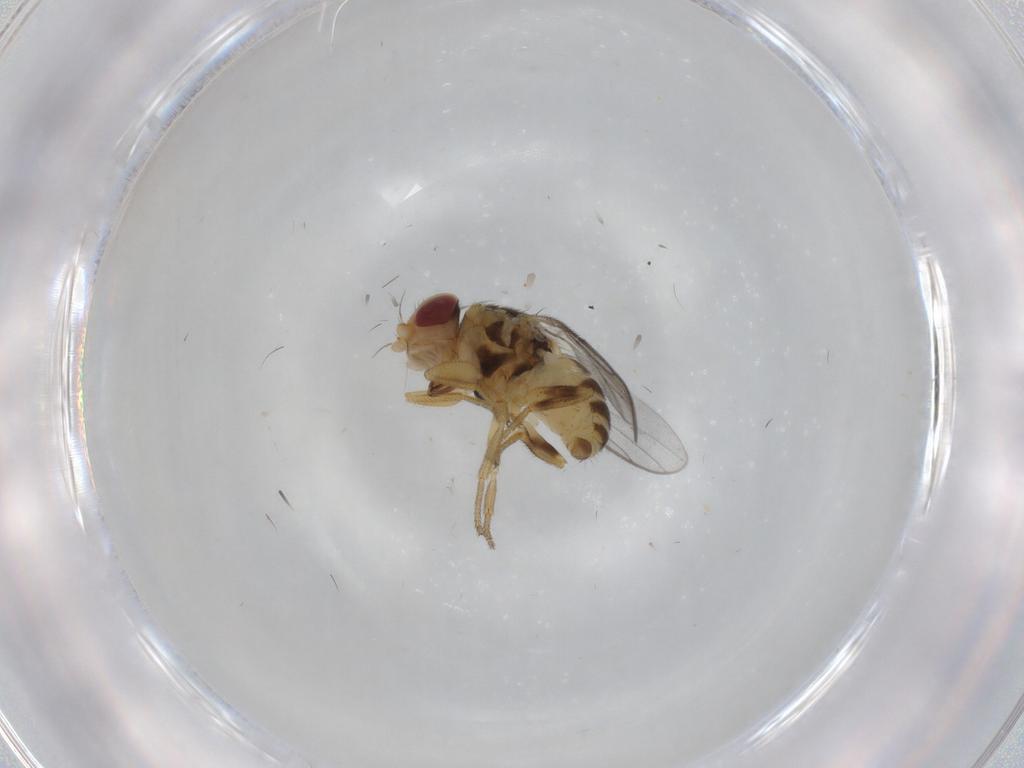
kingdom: Animalia
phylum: Arthropoda
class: Insecta
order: Diptera
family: Chloropidae
